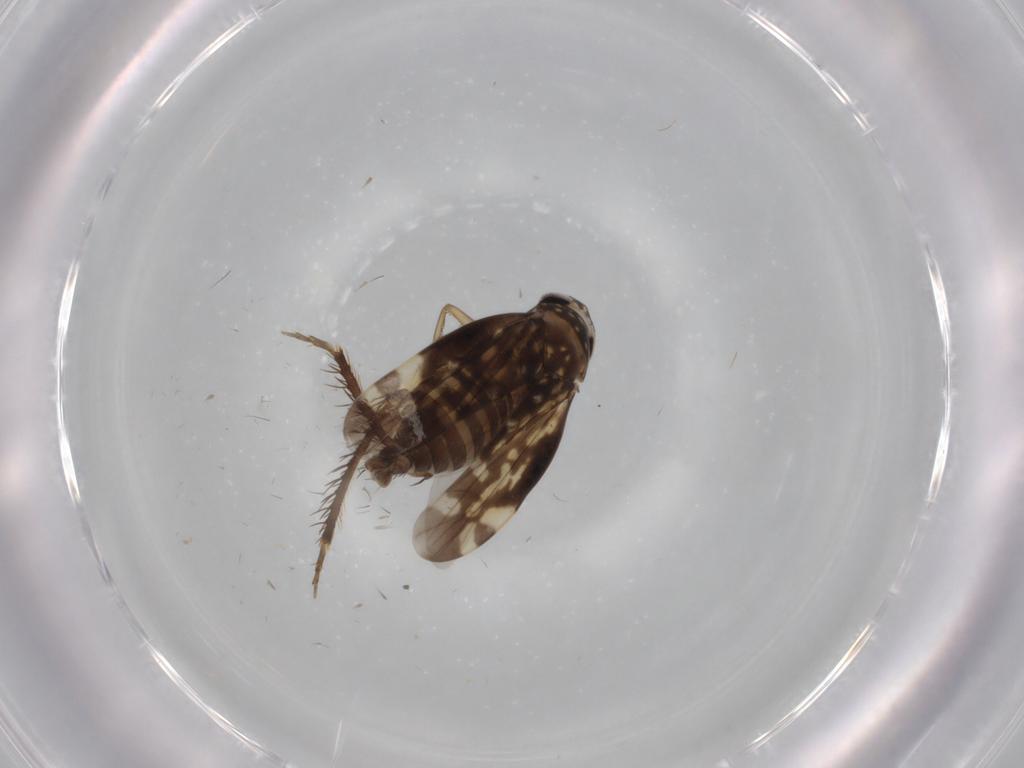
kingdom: Animalia
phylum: Arthropoda
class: Insecta
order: Hemiptera
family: Cicadellidae
